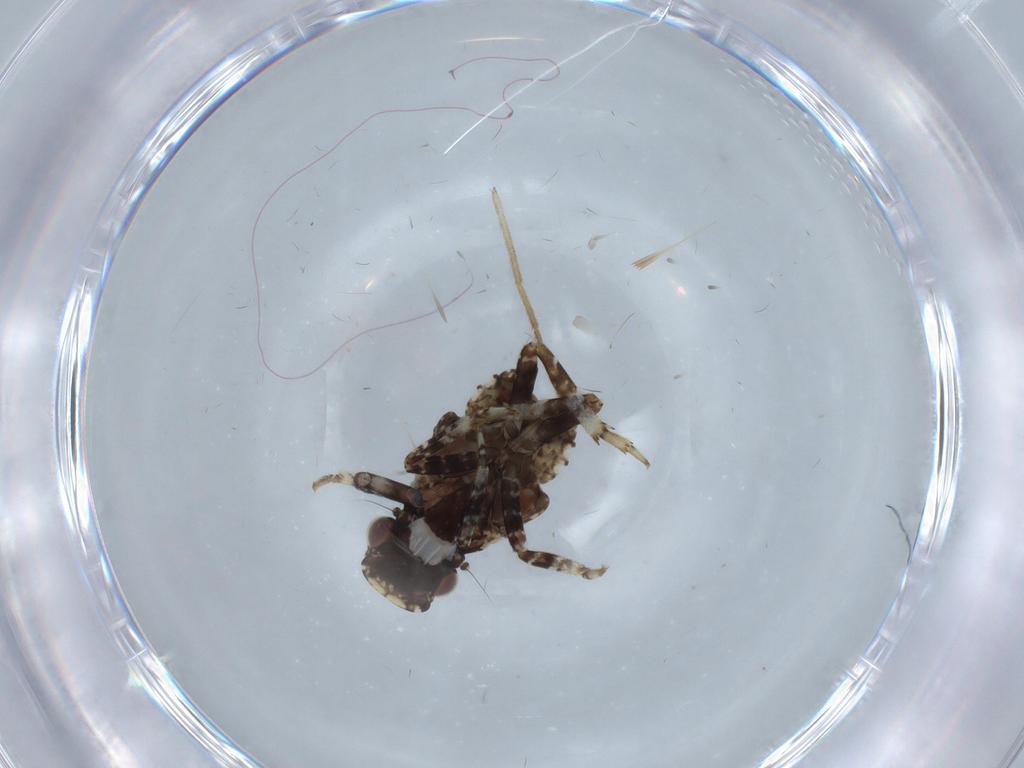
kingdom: Animalia
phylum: Arthropoda
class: Insecta
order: Hemiptera
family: Fulgoridae
